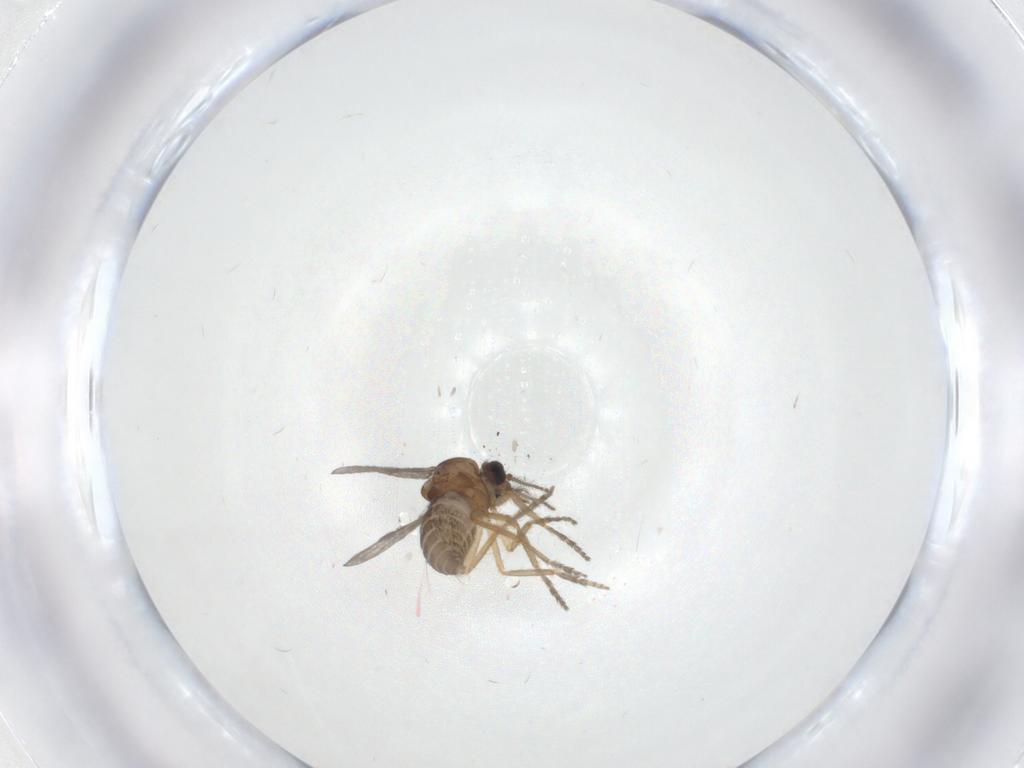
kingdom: Animalia
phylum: Arthropoda
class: Insecta
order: Diptera
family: Ceratopogonidae
